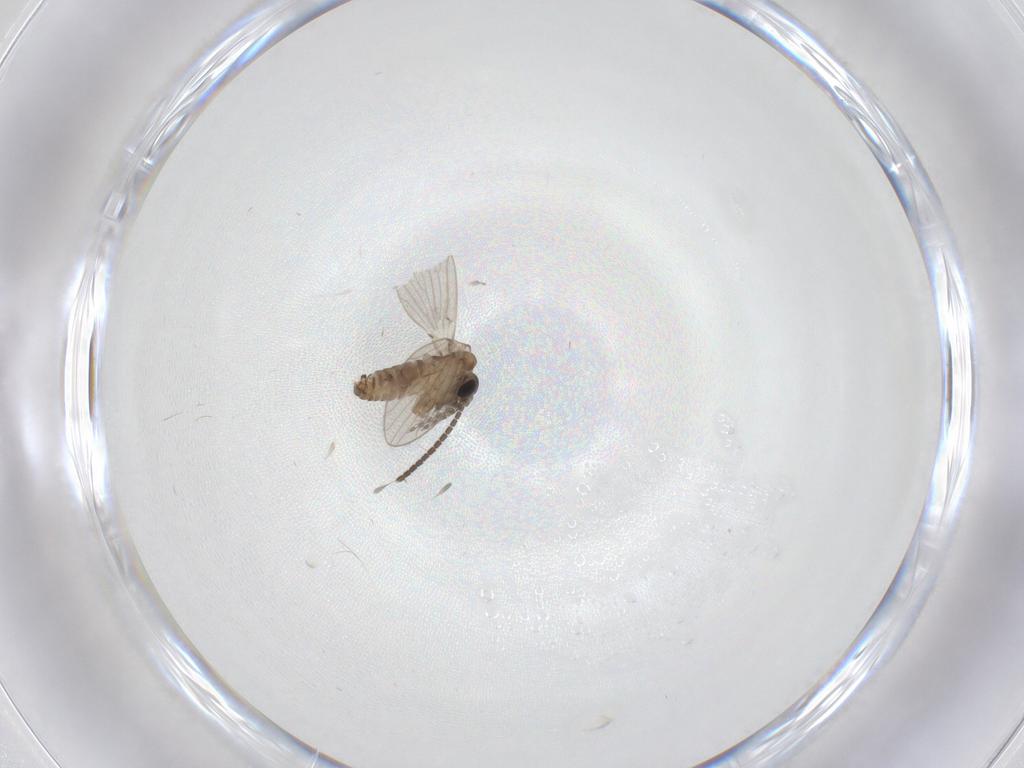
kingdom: Animalia
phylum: Arthropoda
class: Insecta
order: Diptera
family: Sciaridae
